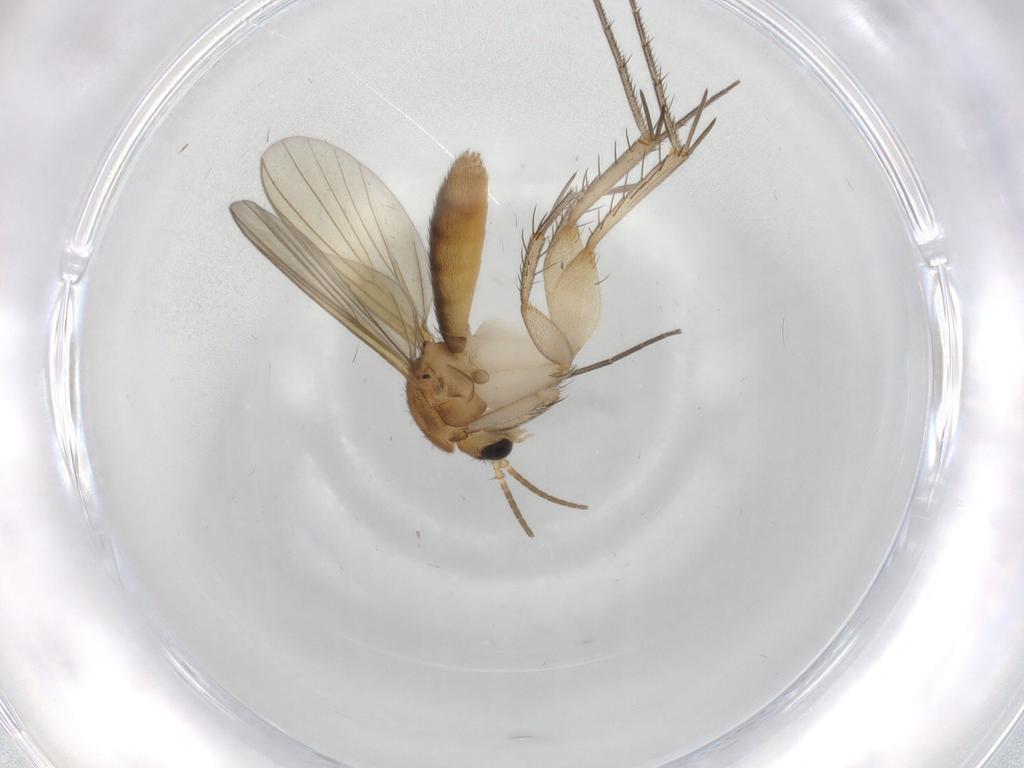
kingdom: Animalia
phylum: Arthropoda
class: Insecta
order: Diptera
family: Mycetophilidae
